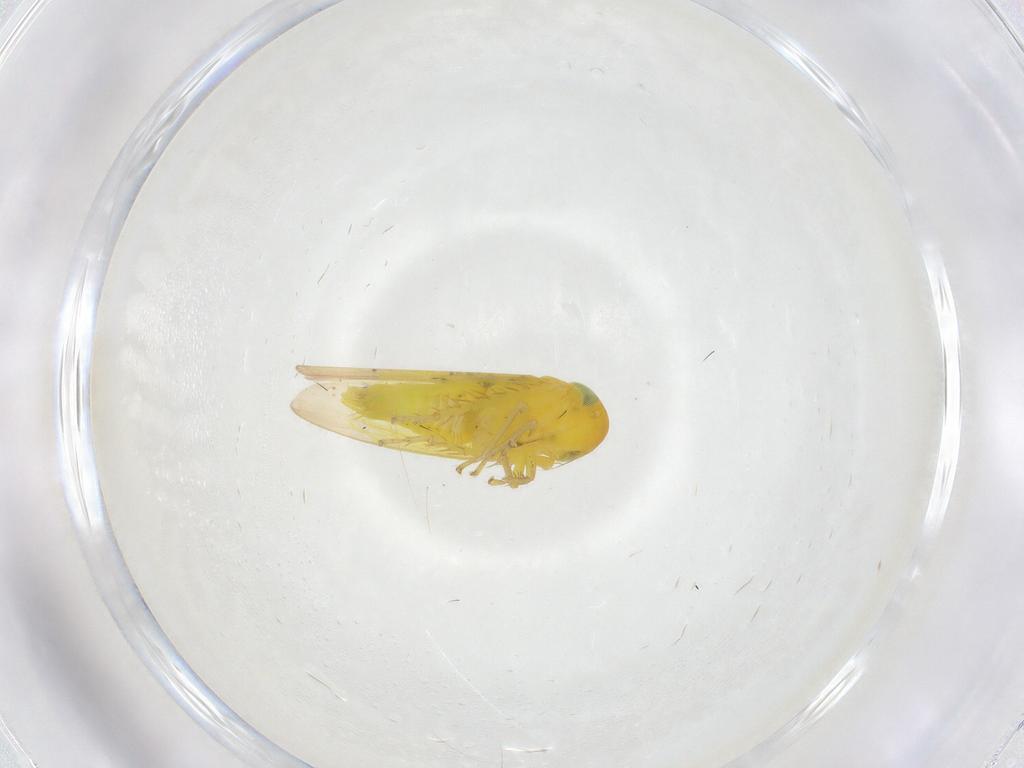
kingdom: Animalia
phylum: Arthropoda
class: Insecta
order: Hemiptera
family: Cicadellidae
